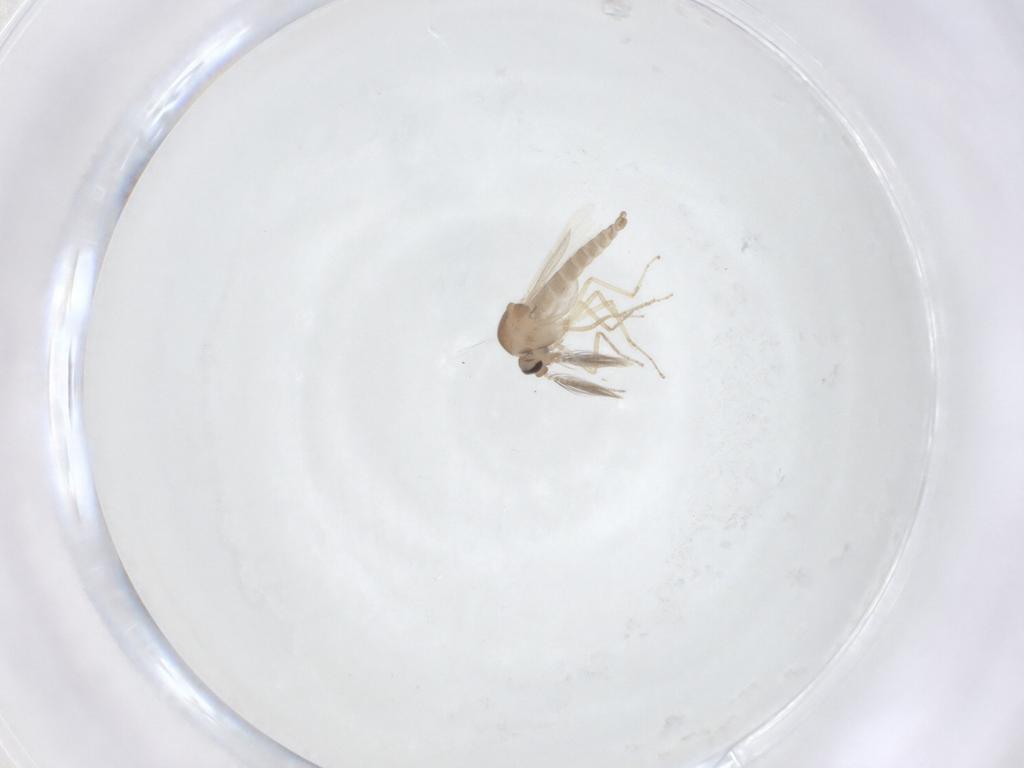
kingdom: Animalia
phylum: Arthropoda
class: Insecta
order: Diptera
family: Ceratopogonidae
